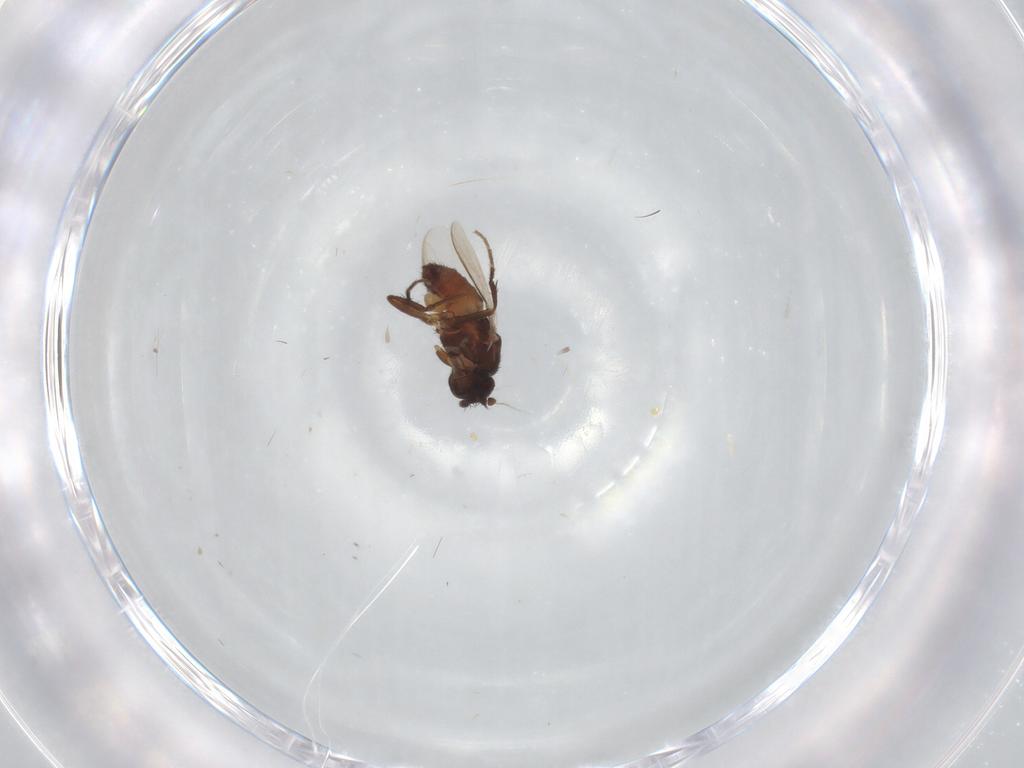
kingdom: Animalia
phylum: Arthropoda
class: Insecta
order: Diptera
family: Sphaeroceridae
